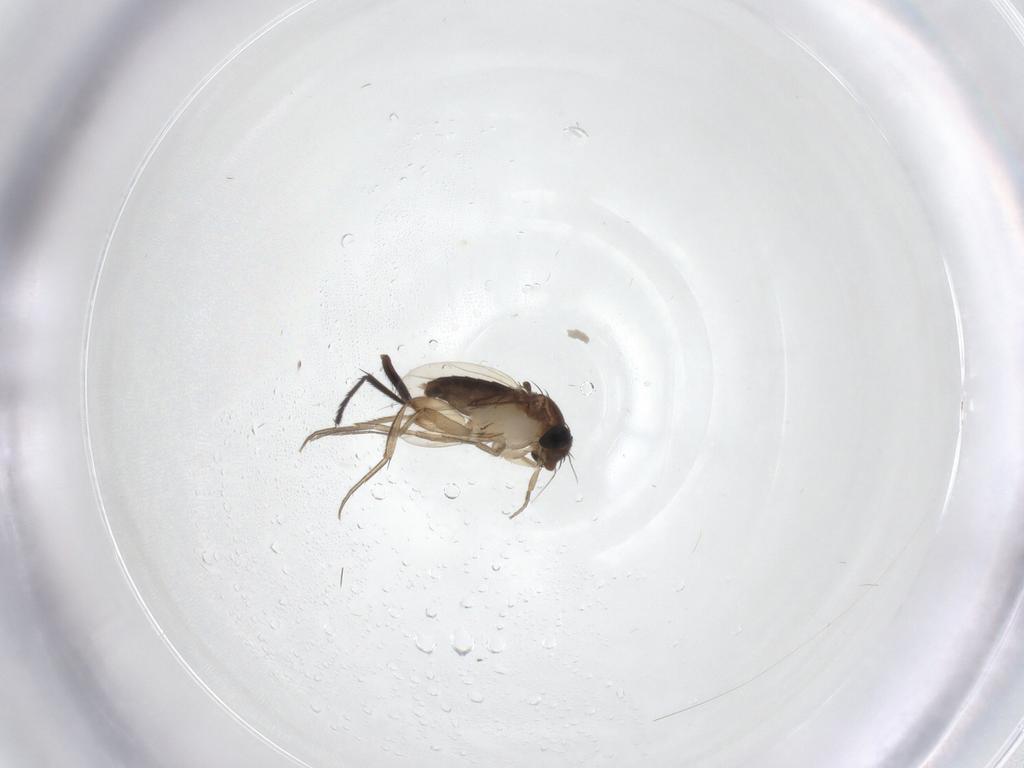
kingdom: Animalia
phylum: Arthropoda
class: Insecta
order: Diptera
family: Phoridae
